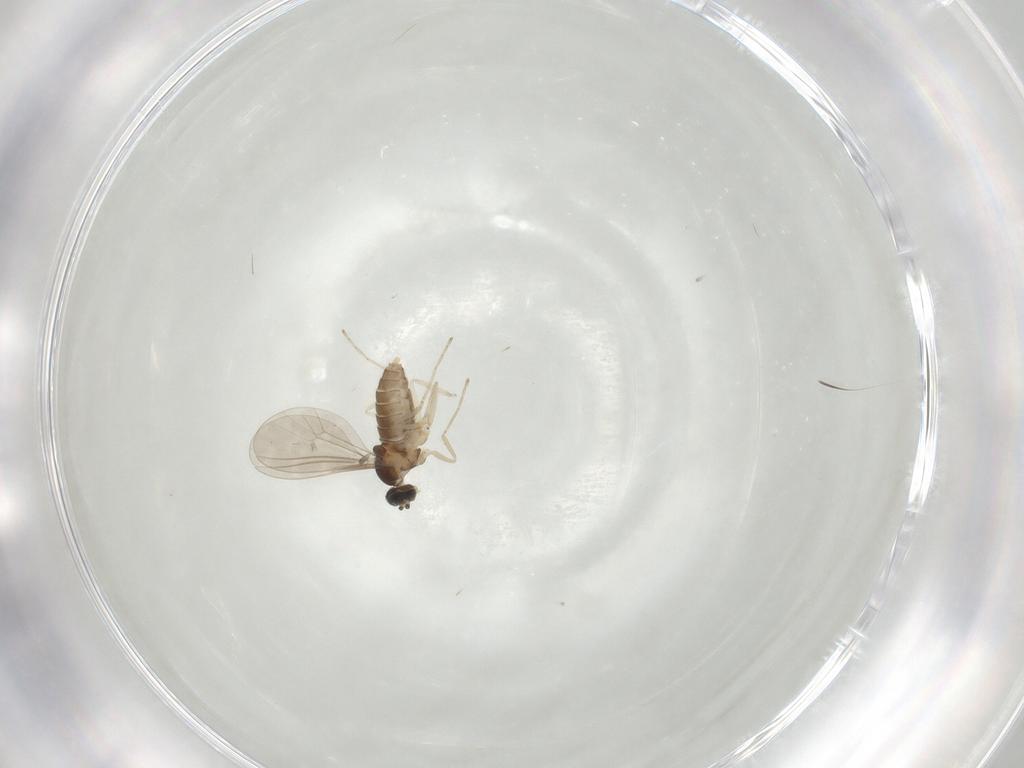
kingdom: Animalia
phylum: Arthropoda
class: Insecta
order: Diptera
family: Cecidomyiidae
